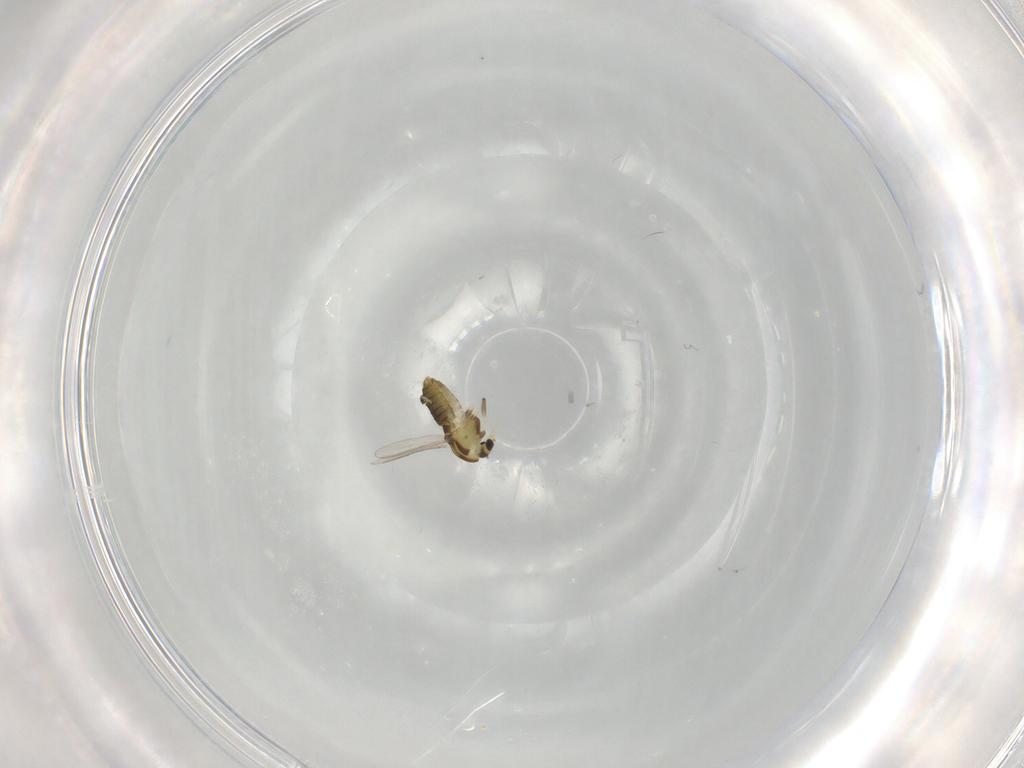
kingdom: Animalia
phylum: Arthropoda
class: Insecta
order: Diptera
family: Chironomidae
